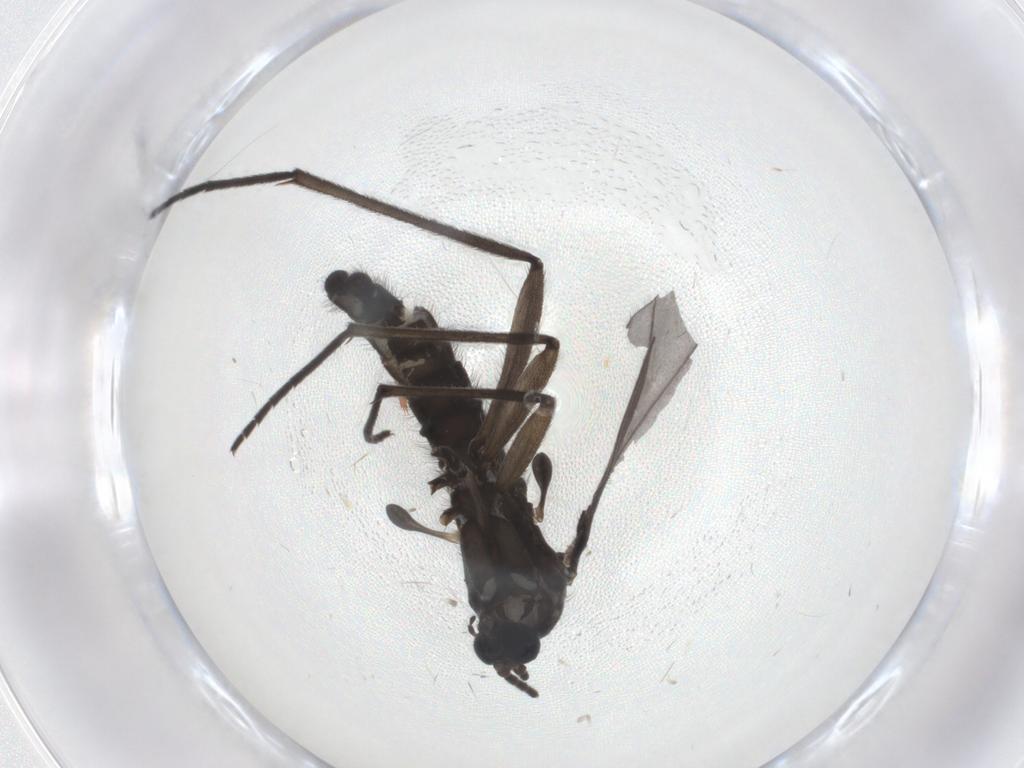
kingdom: Animalia
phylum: Arthropoda
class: Insecta
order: Diptera
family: Sciaridae
